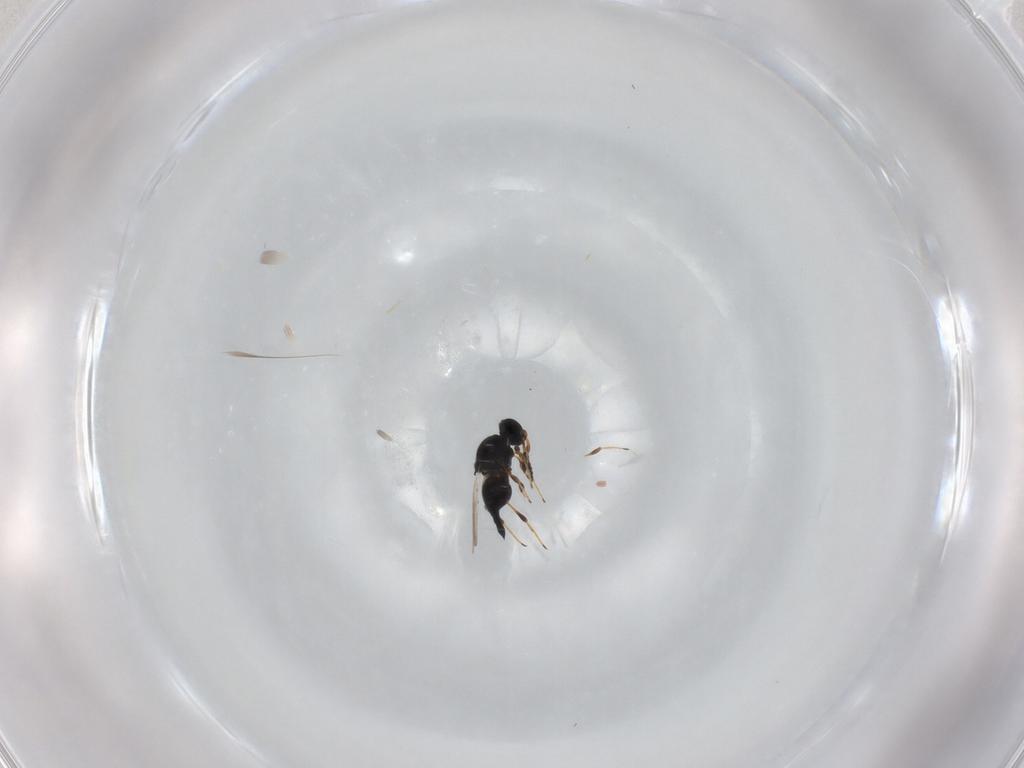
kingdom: Animalia
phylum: Arthropoda
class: Insecta
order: Hymenoptera
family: Platygastridae
